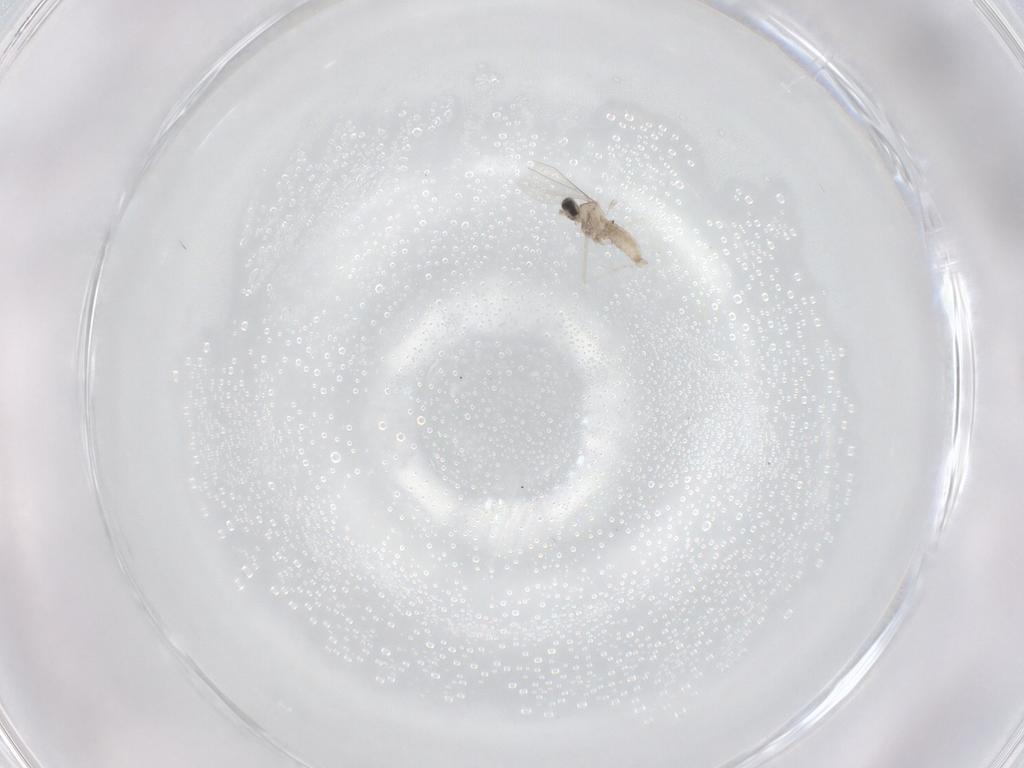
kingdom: Animalia
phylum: Arthropoda
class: Insecta
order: Diptera
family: Cecidomyiidae
